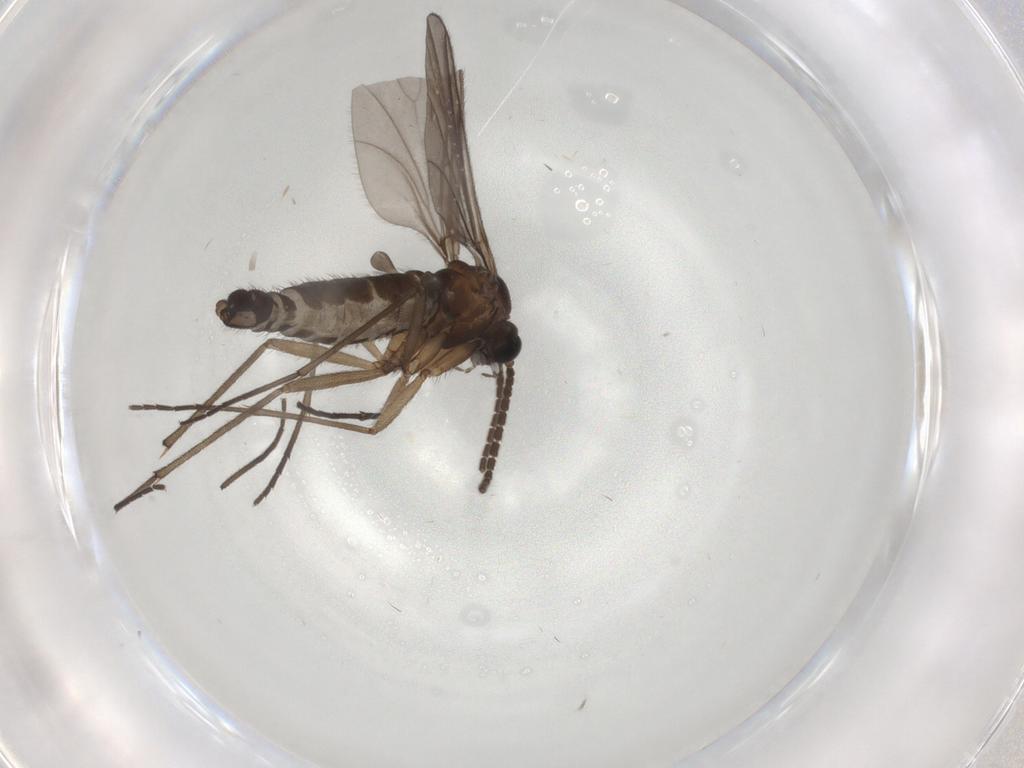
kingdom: Animalia
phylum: Arthropoda
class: Insecta
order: Diptera
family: Sciaridae
